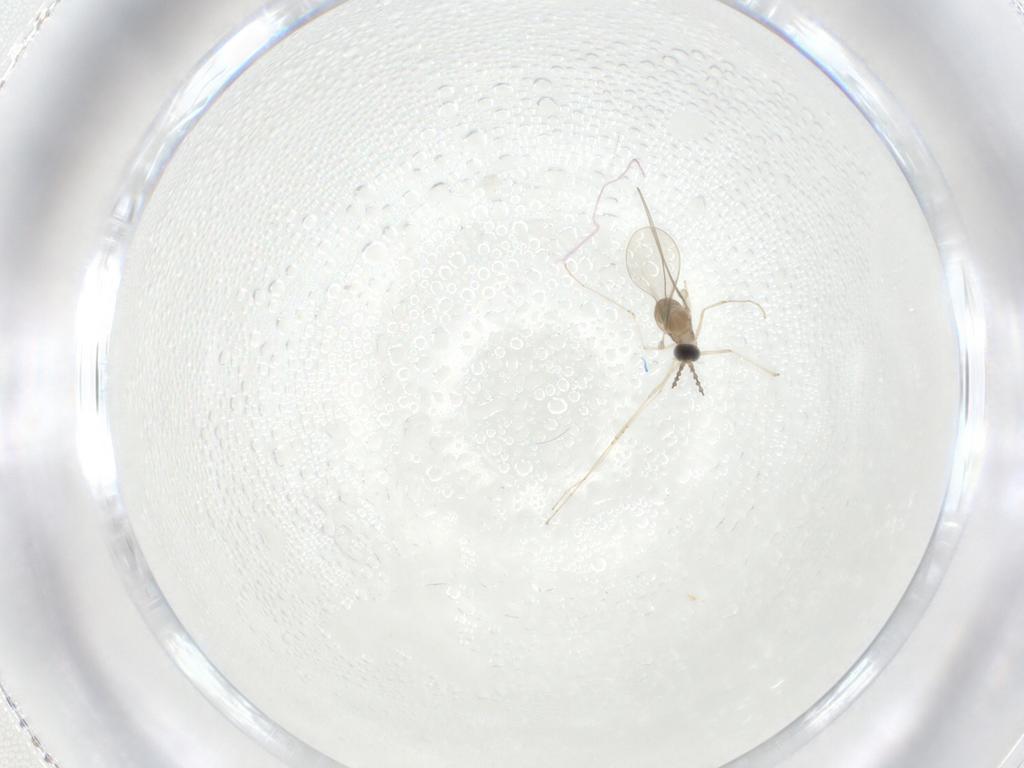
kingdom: Animalia
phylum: Arthropoda
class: Insecta
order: Diptera
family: Cecidomyiidae
